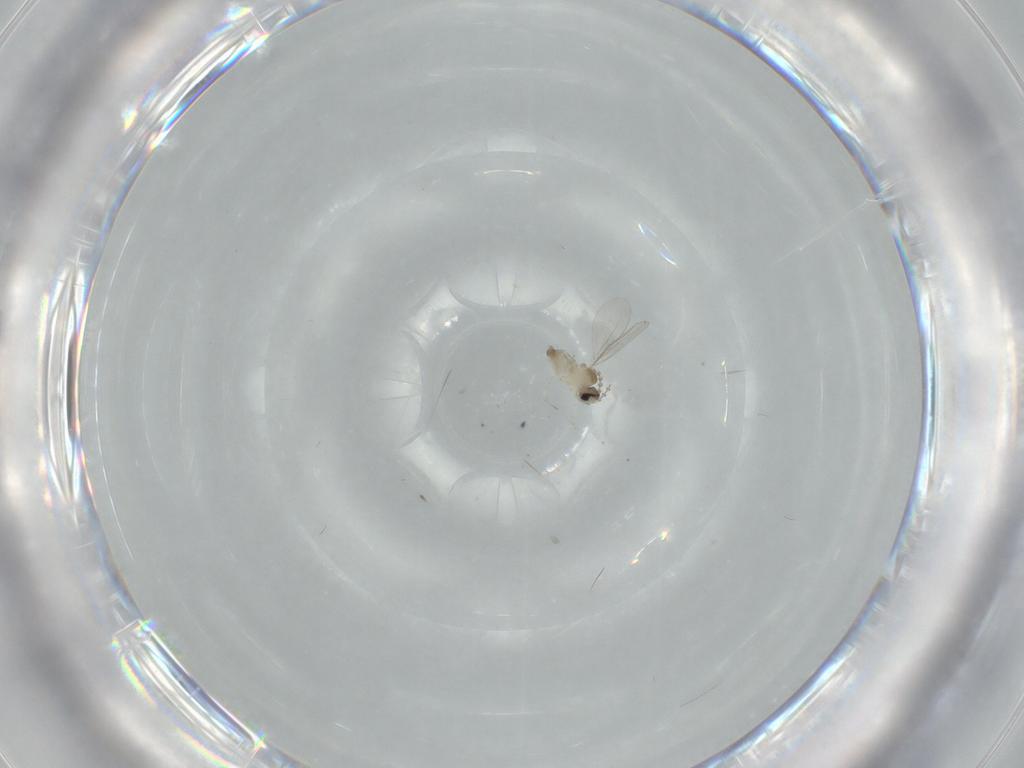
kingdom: Animalia
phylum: Arthropoda
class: Insecta
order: Diptera
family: Cecidomyiidae
